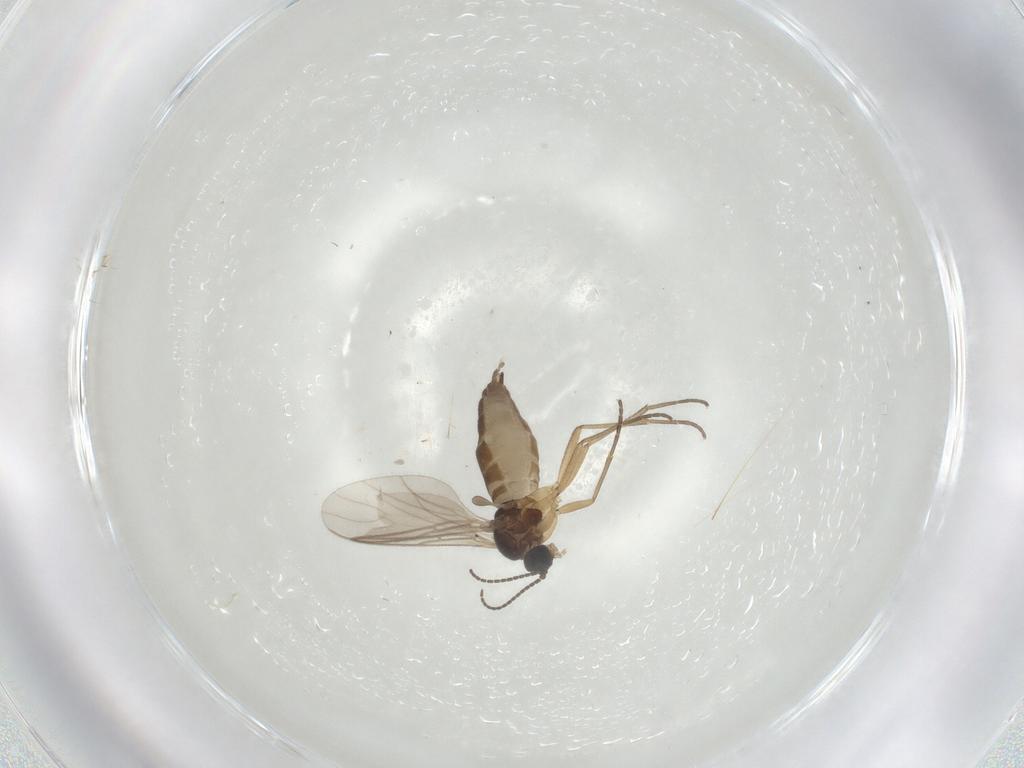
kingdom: Animalia
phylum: Arthropoda
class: Insecta
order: Diptera
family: Sciaridae
